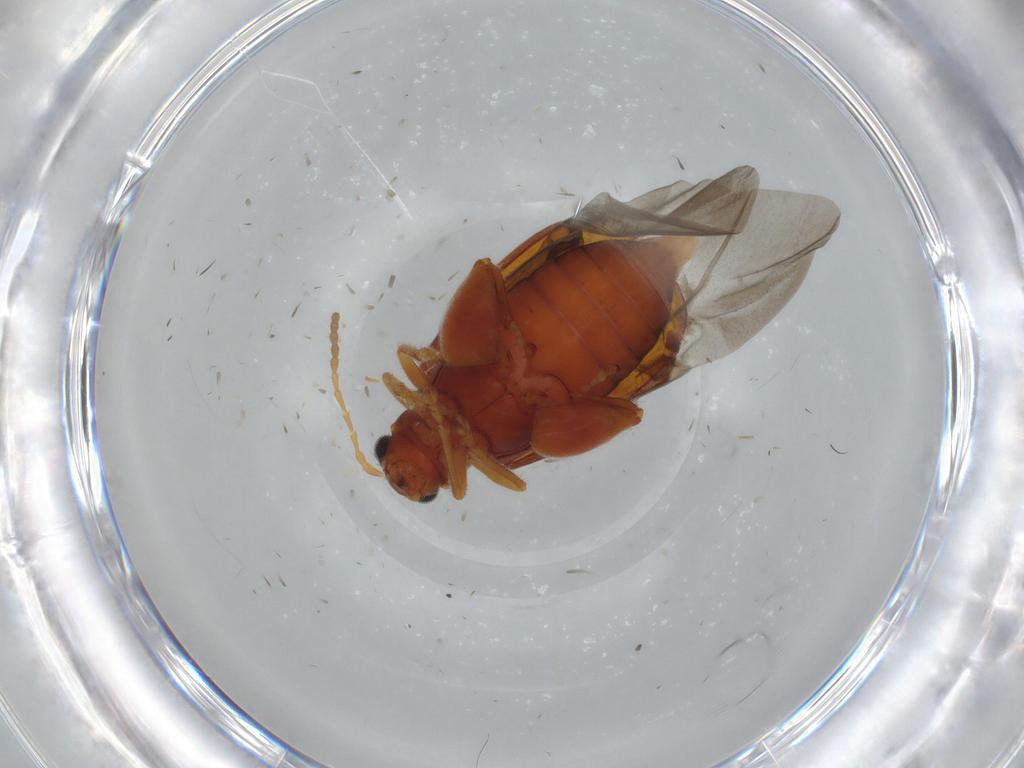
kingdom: Animalia
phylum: Arthropoda
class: Insecta
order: Coleoptera
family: Chrysomelidae
